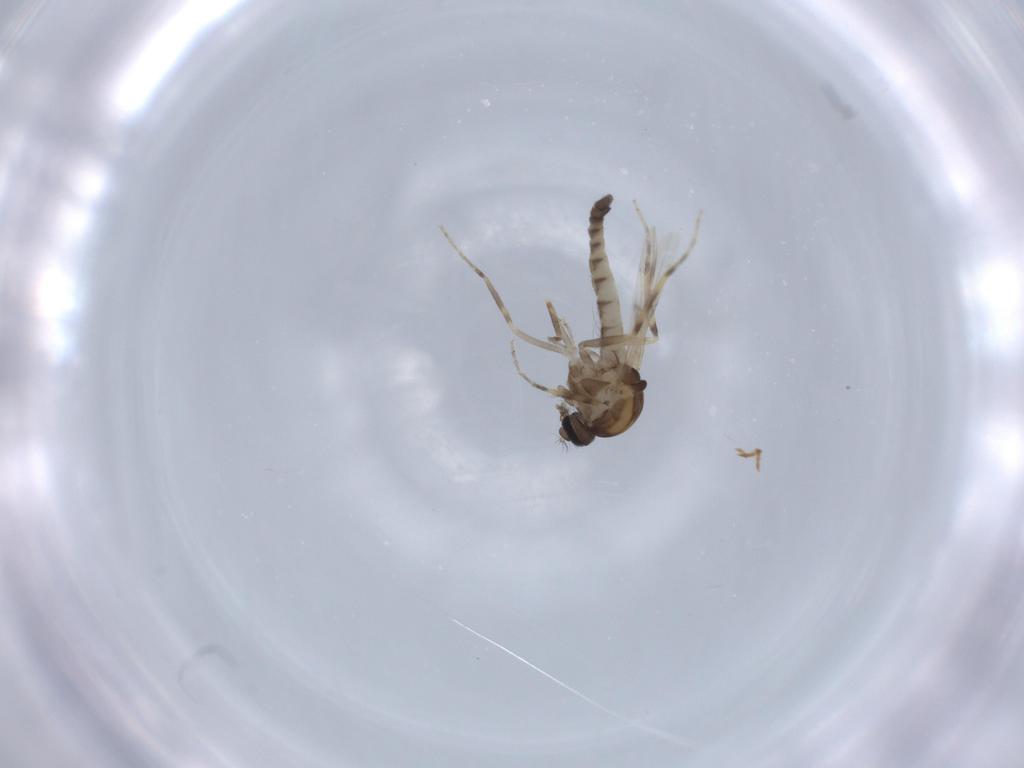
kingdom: Animalia
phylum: Arthropoda
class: Insecta
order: Diptera
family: Ceratopogonidae
